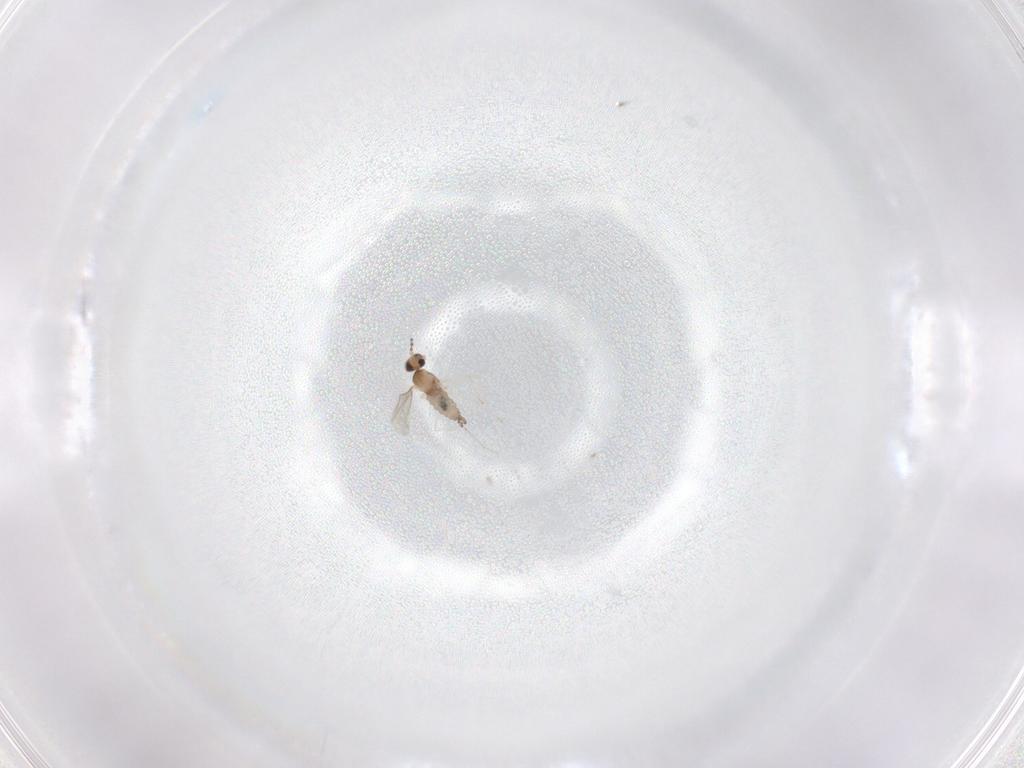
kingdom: Animalia
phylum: Arthropoda
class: Insecta
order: Diptera
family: Cecidomyiidae
